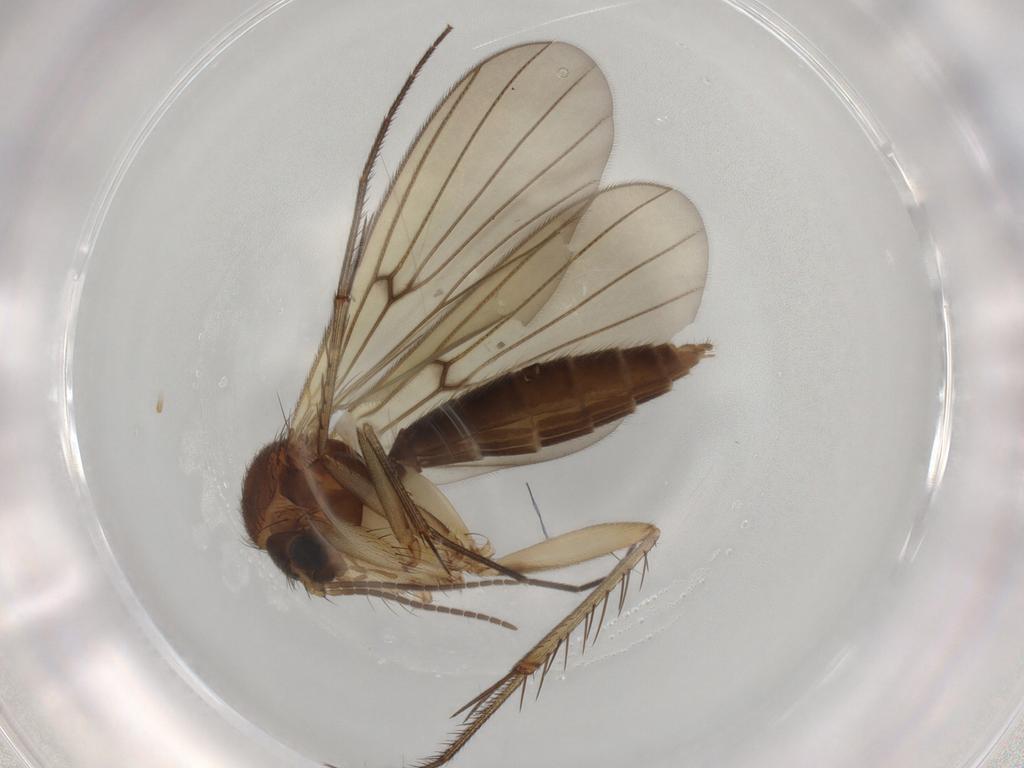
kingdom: Animalia
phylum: Arthropoda
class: Insecta
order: Diptera
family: Mycetophilidae
